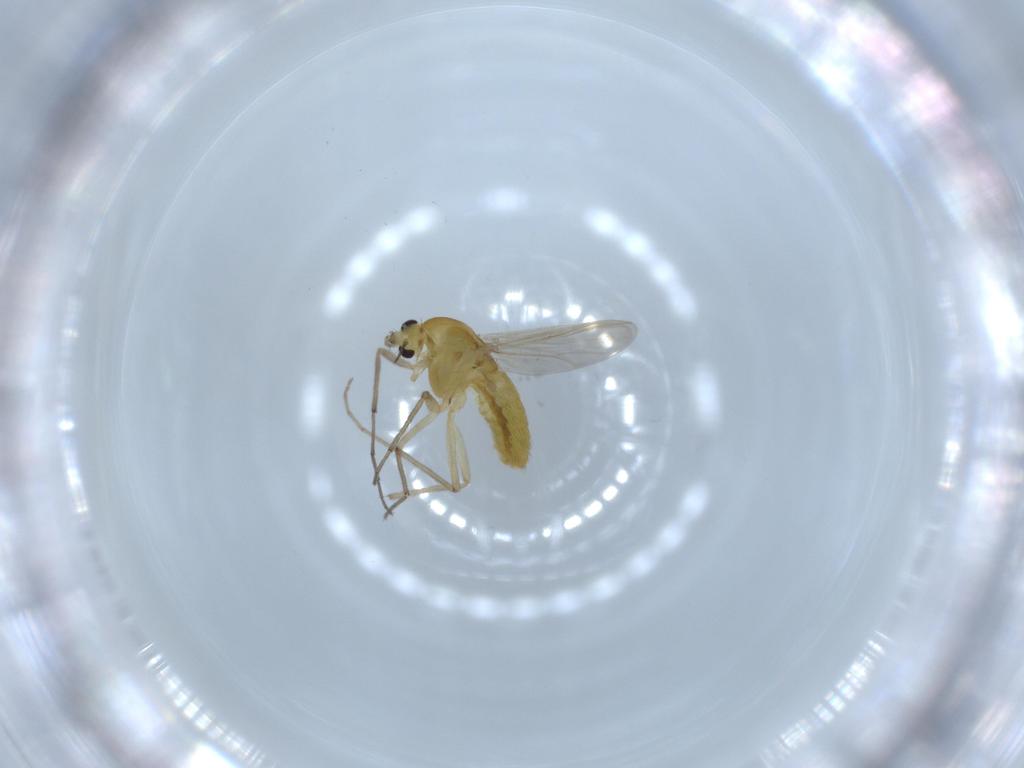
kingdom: Animalia
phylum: Arthropoda
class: Insecta
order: Diptera
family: Chironomidae
